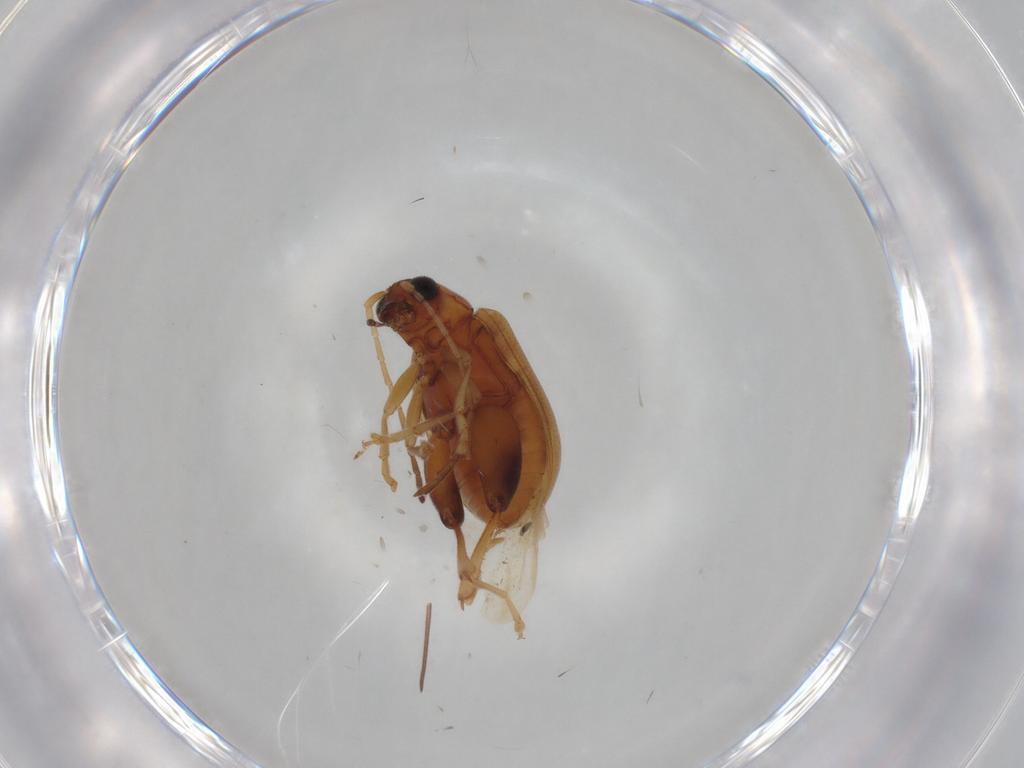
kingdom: Animalia
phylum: Arthropoda
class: Insecta
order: Coleoptera
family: Chrysomelidae
